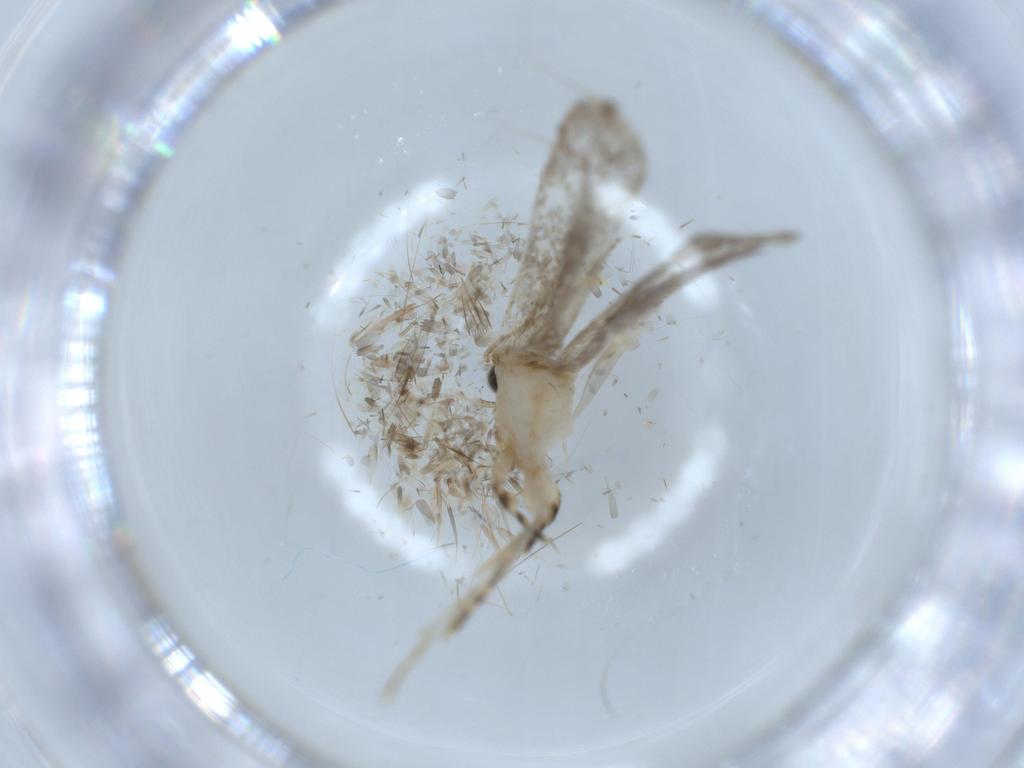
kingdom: Animalia
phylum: Arthropoda
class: Insecta
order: Lepidoptera
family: Tineidae
